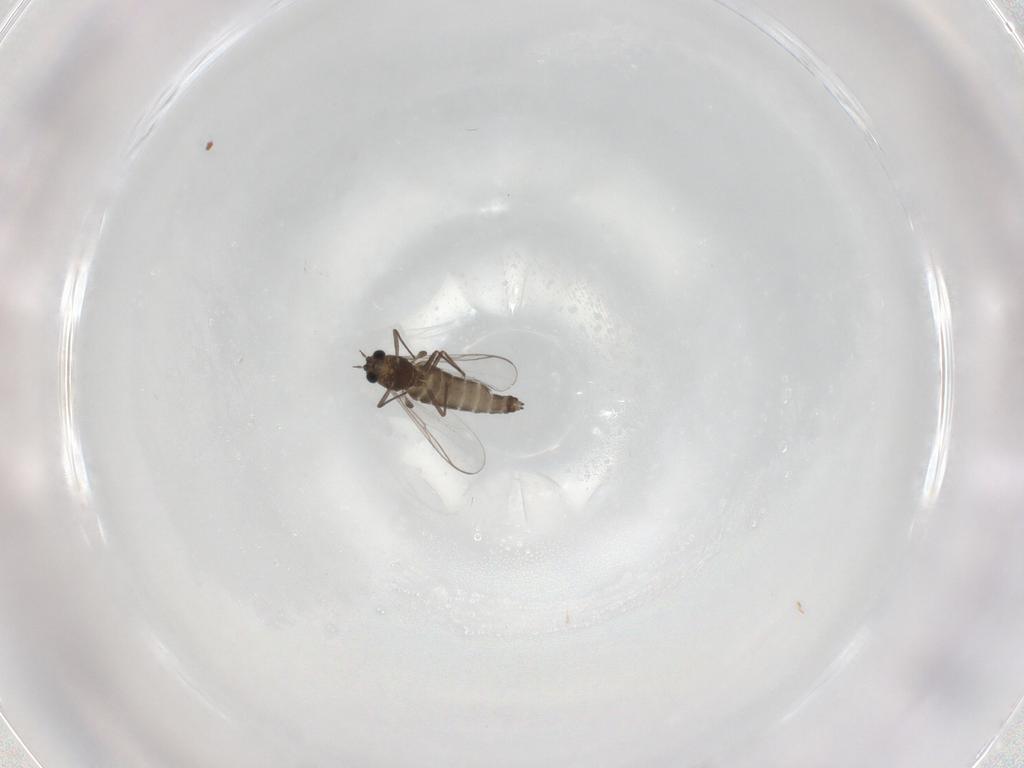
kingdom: Animalia
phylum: Arthropoda
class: Insecta
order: Diptera
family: Chironomidae
